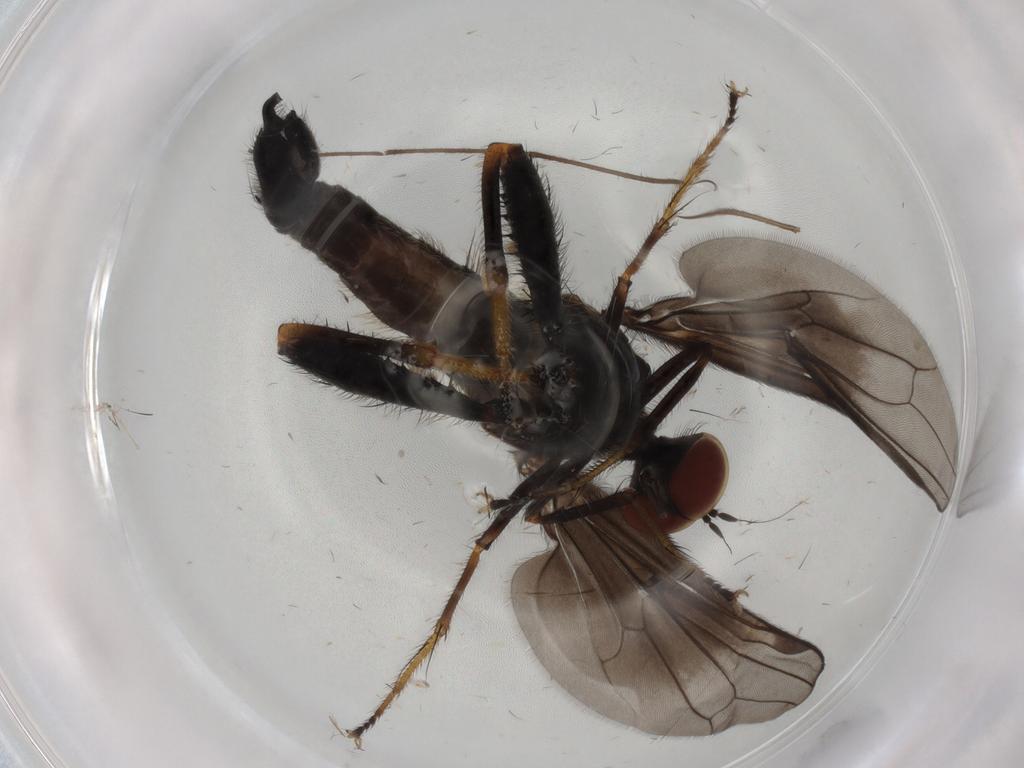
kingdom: Animalia
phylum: Arthropoda
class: Insecta
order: Diptera
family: Hybotidae
